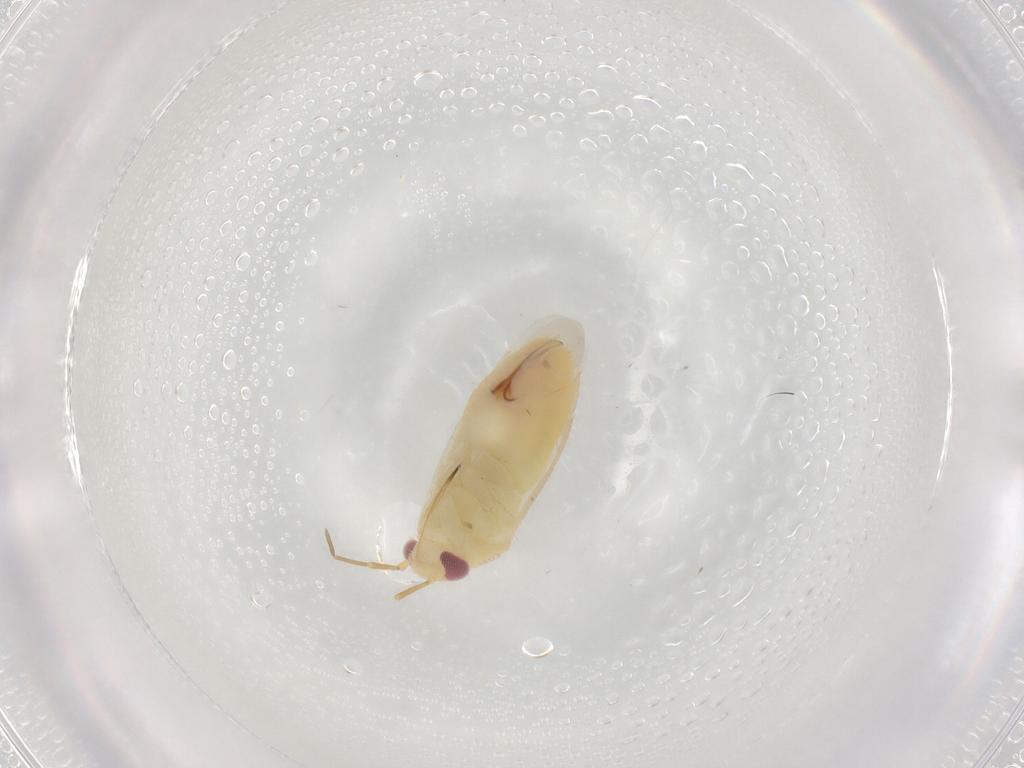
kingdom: Animalia
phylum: Arthropoda
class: Insecta
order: Hemiptera
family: Miridae
